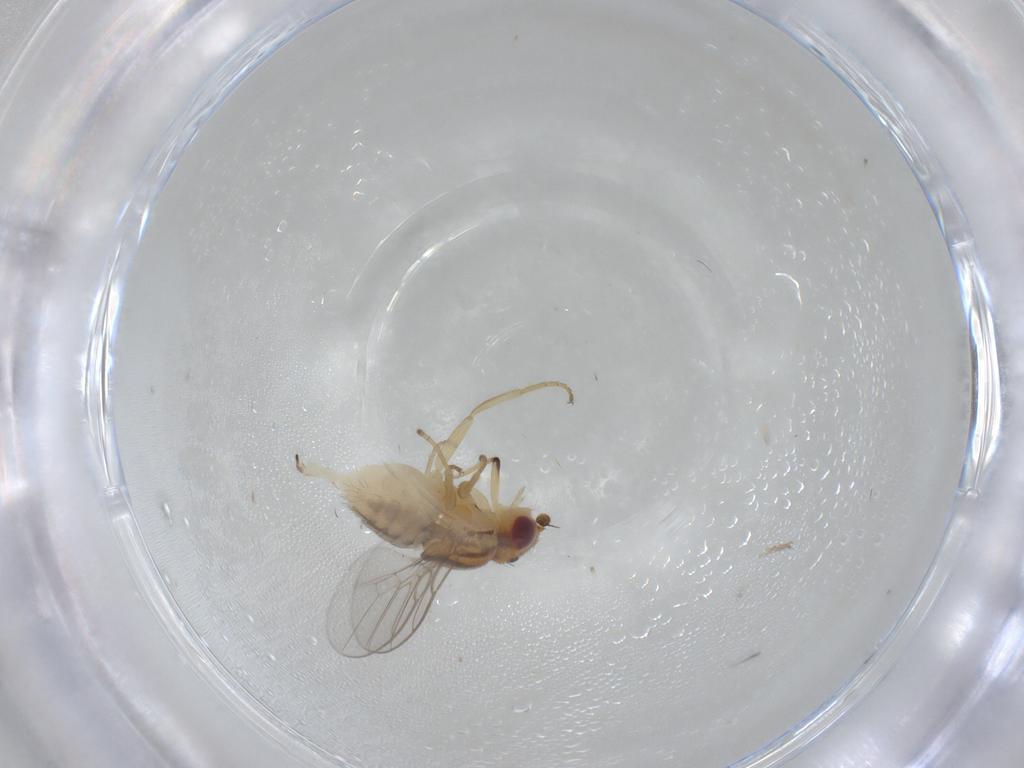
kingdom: Animalia
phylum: Arthropoda
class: Insecta
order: Diptera
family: Chloropidae
